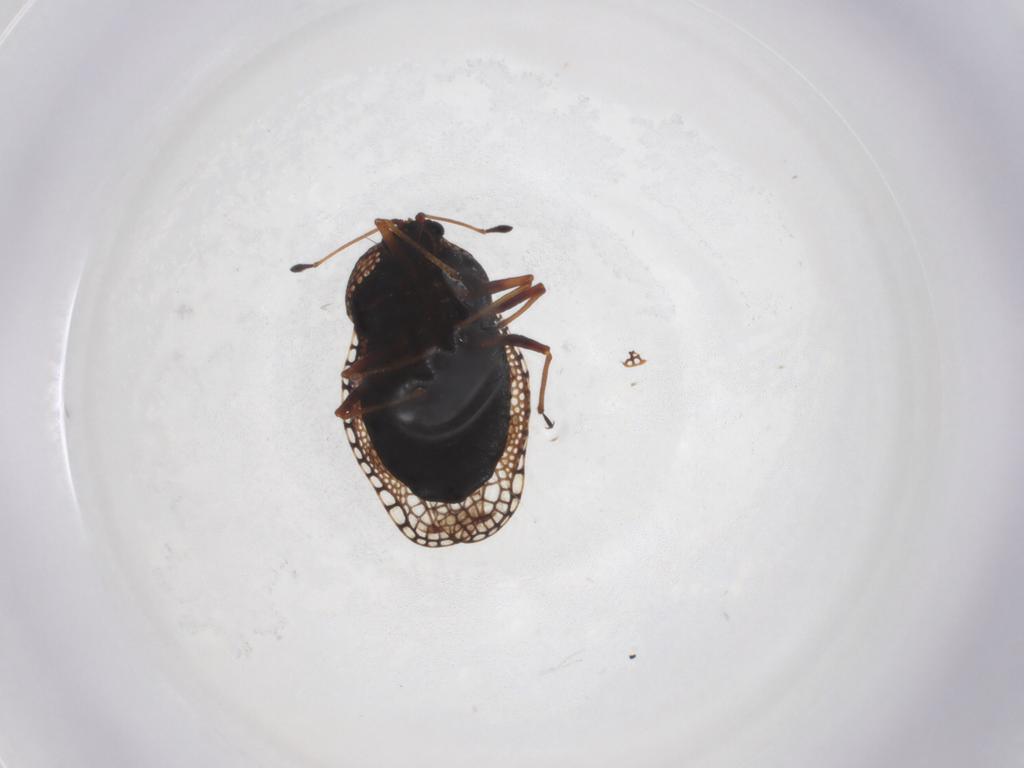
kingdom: Animalia
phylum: Arthropoda
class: Insecta
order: Hemiptera
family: Tingidae
